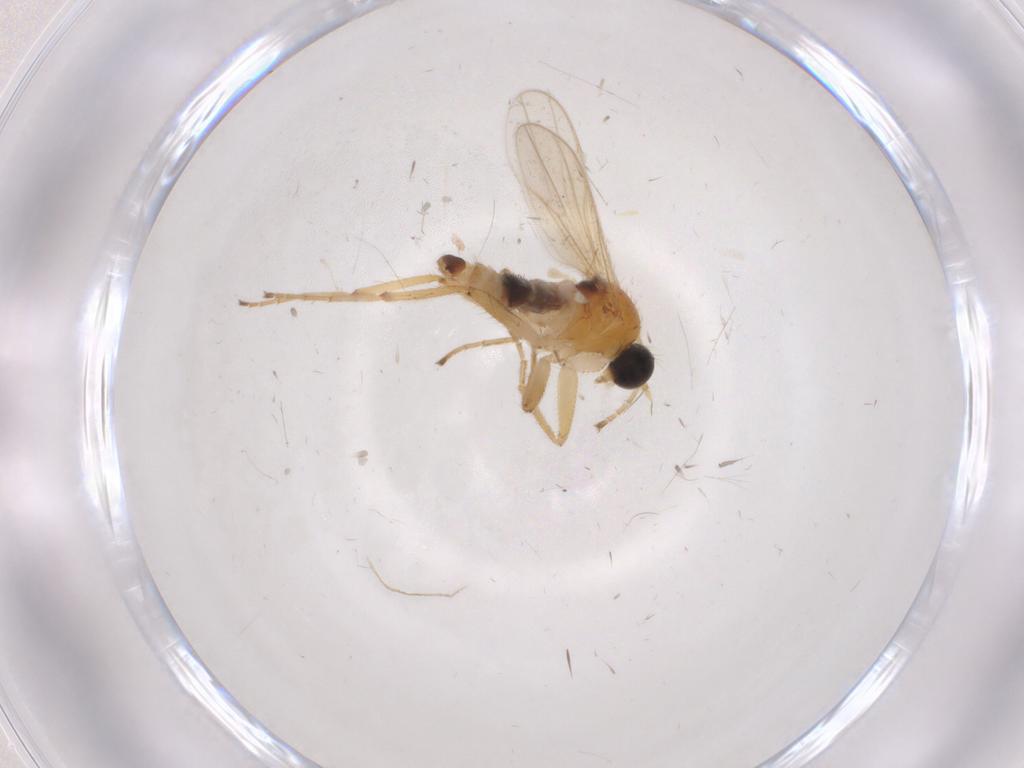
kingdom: Animalia
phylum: Arthropoda
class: Insecta
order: Diptera
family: Hybotidae
